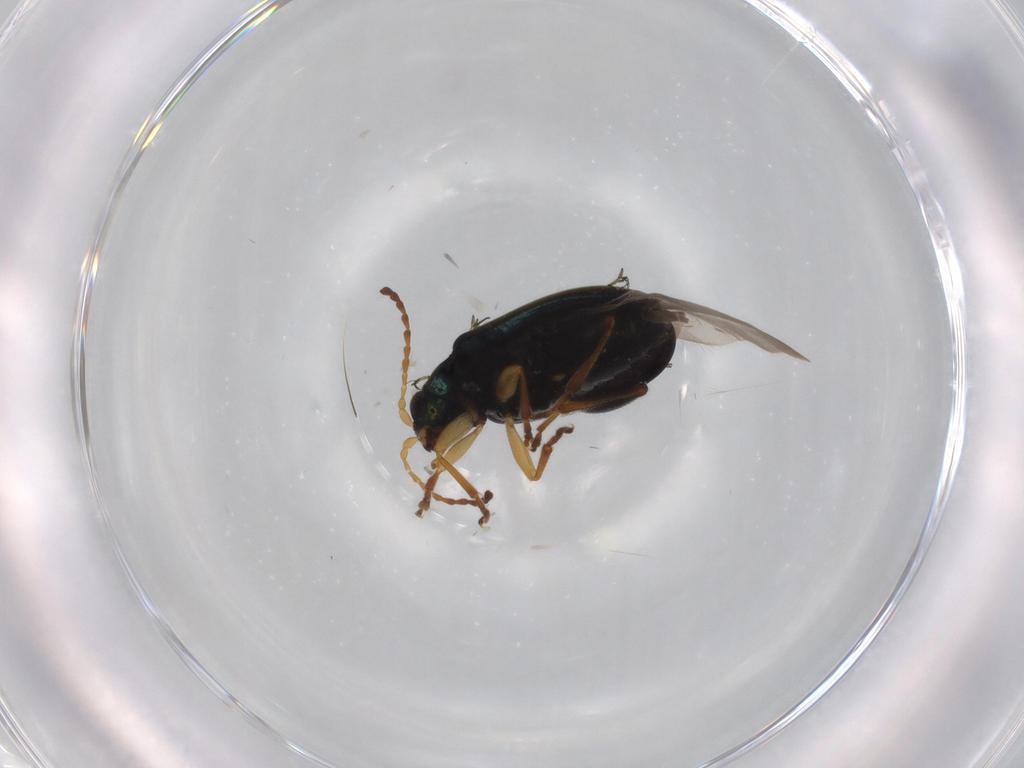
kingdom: Animalia
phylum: Arthropoda
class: Insecta
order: Coleoptera
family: Chrysomelidae
